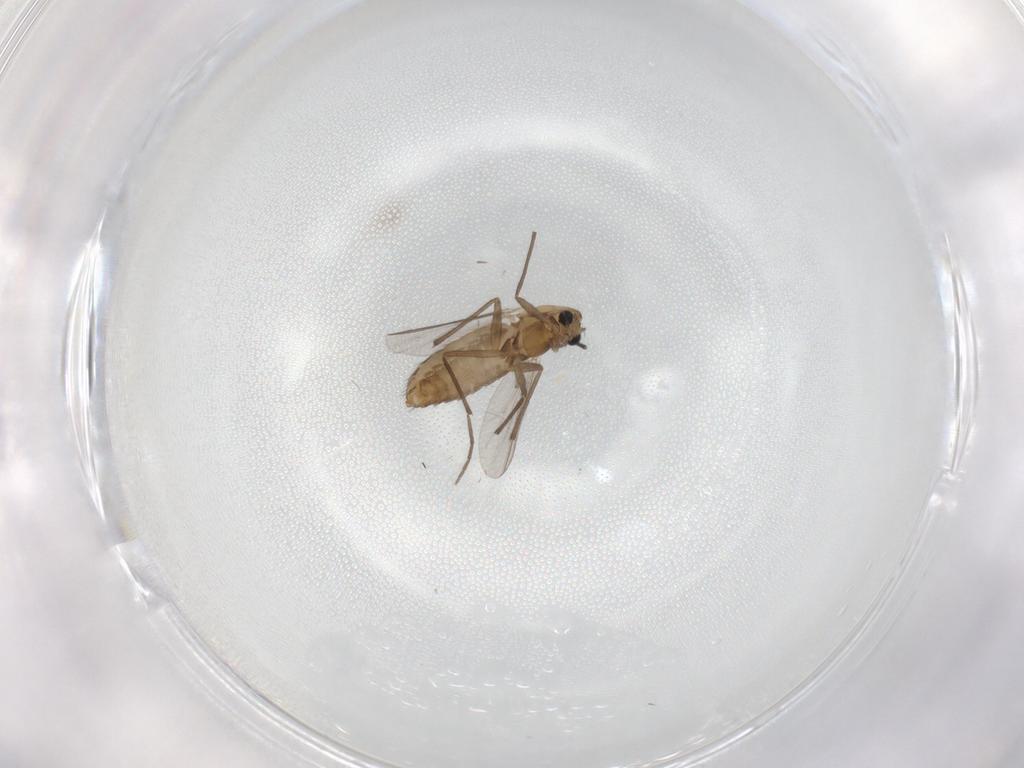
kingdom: Animalia
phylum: Arthropoda
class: Insecta
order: Diptera
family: Chironomidae
